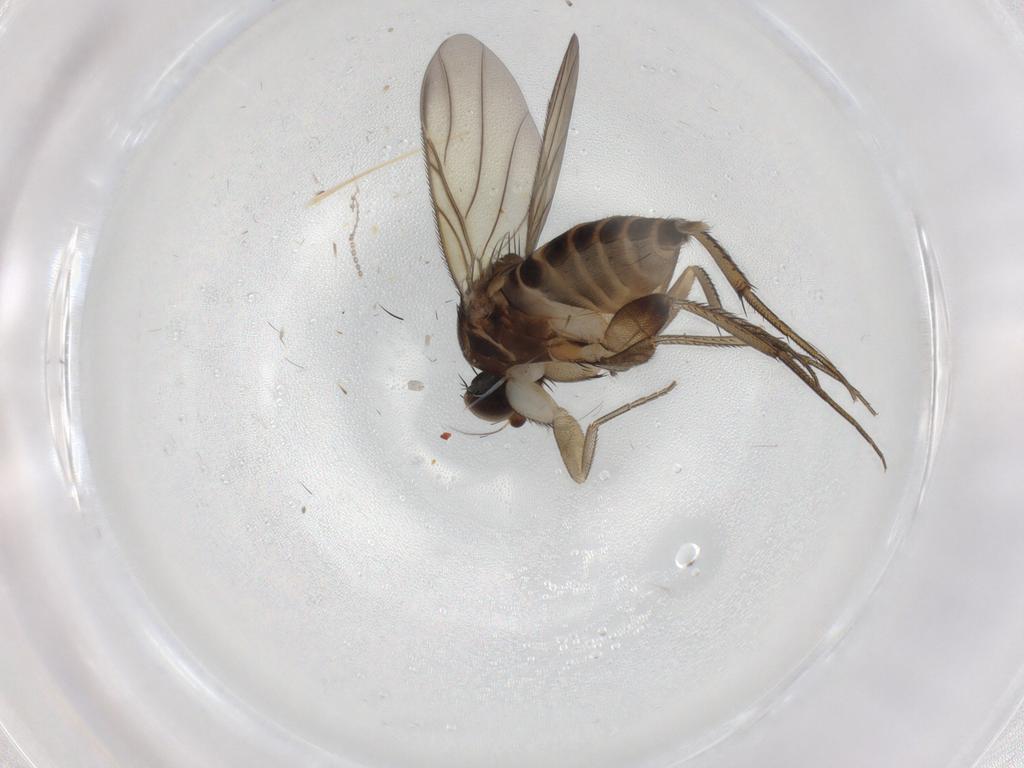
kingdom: Animalia
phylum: Arthropoda
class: Insecta
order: Diptera
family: Phoridae
